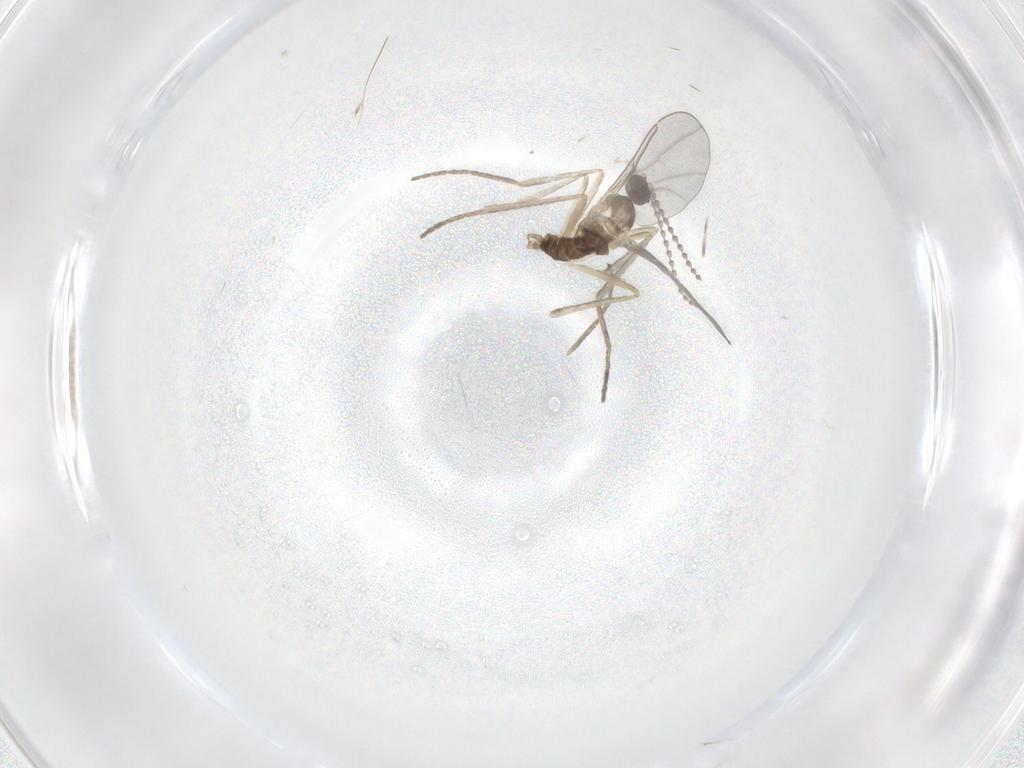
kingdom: Animalia
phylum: Arthropoda
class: Insecta
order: Diptera
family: Cecidomyiidae
